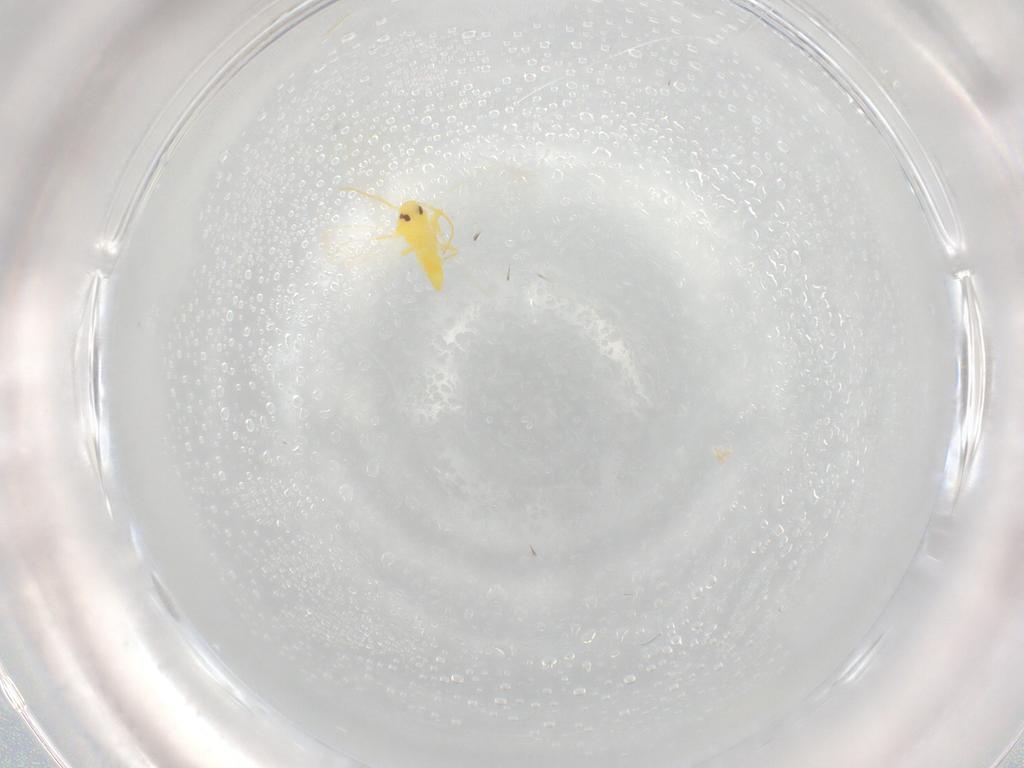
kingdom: Animalia
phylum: Arthropoda
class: Insecta
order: Hemiptera
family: Aleyrodidae
